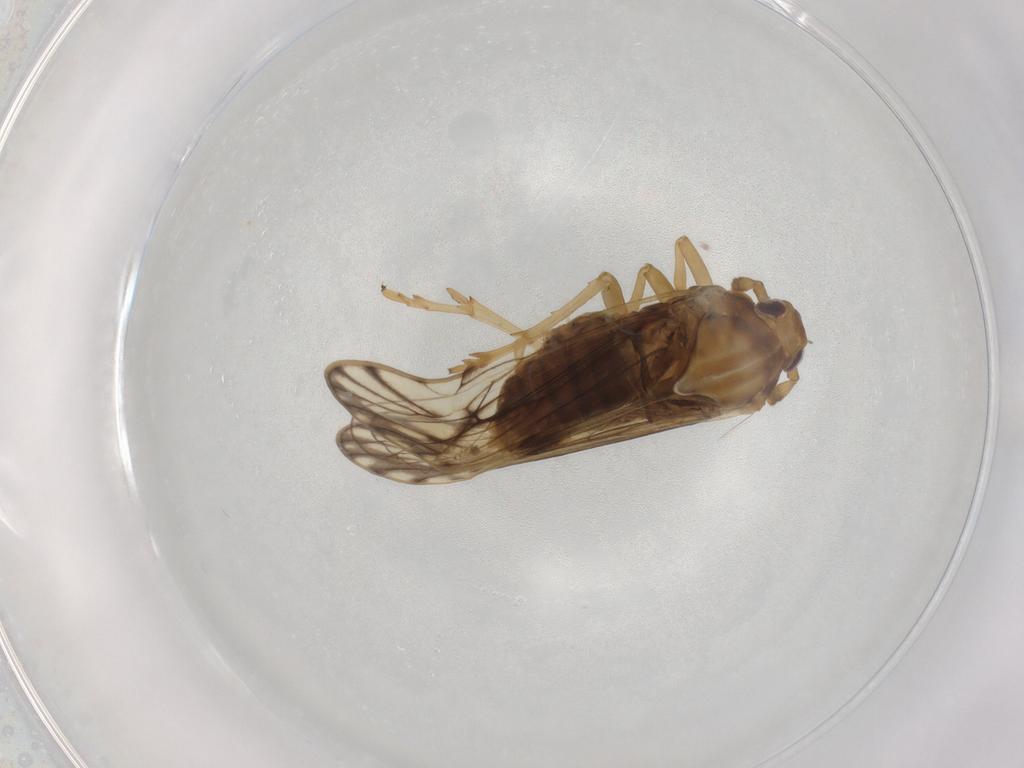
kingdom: Animalia
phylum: Arthropoda
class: Insecta
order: Hemiptera
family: Delphacidae
